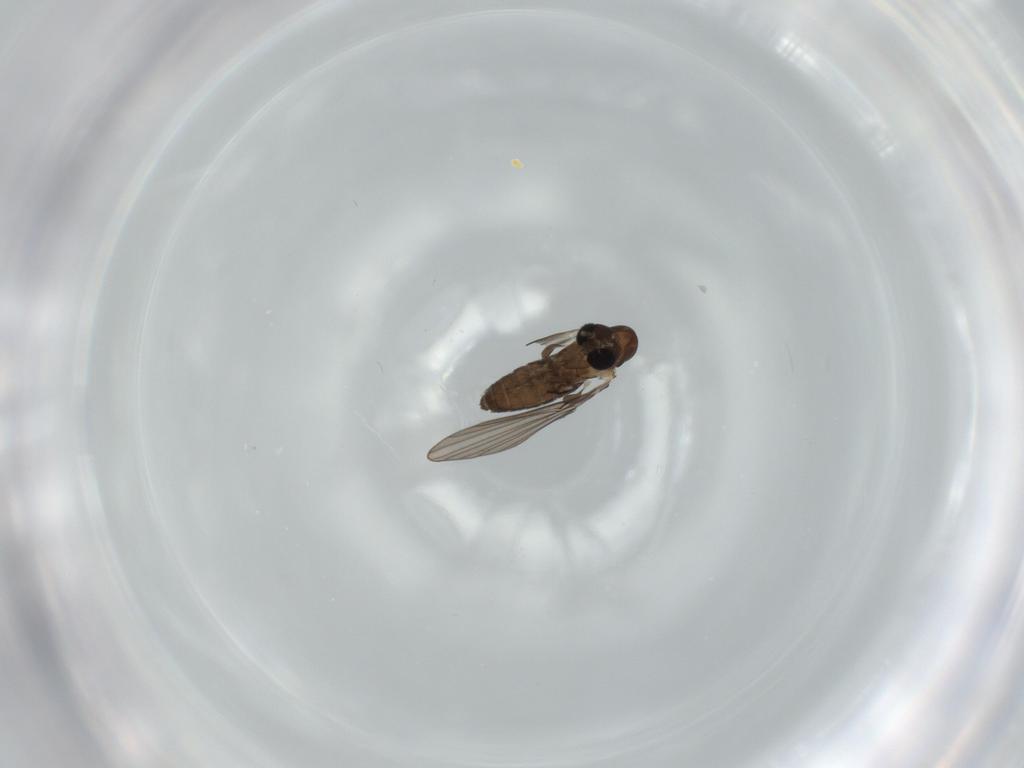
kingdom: Animalia
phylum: Arthropoda
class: Insecta
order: Diptera
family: Psychodidae
